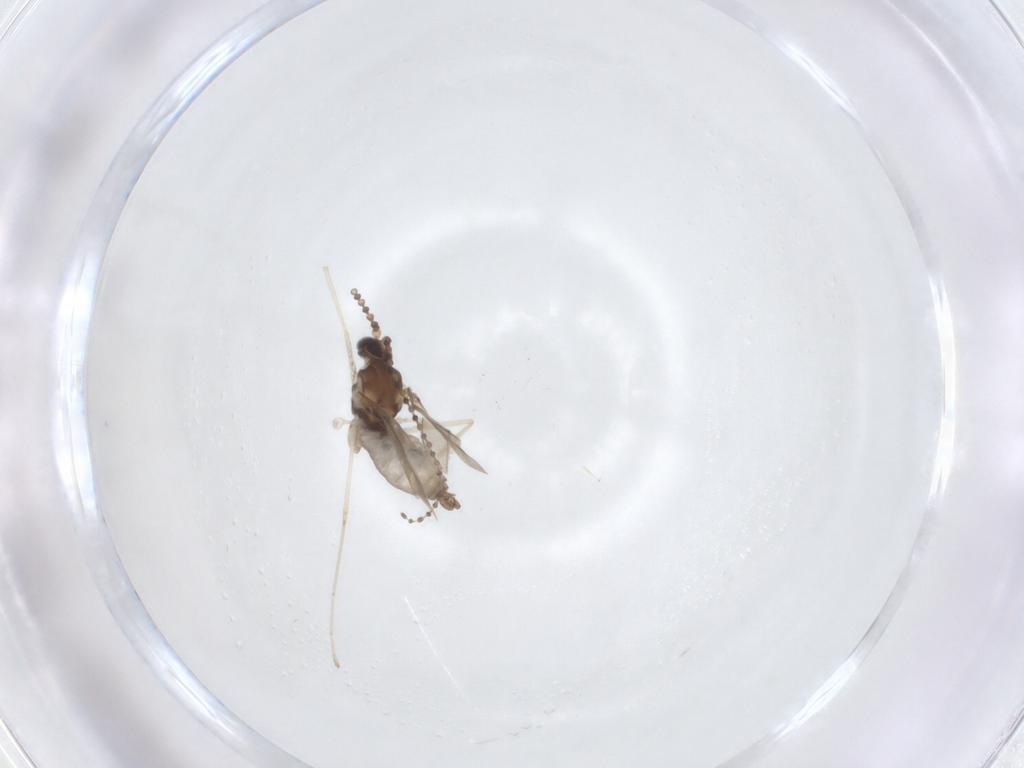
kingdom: Animalia
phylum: Arthropoda
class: Insecta
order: Diptera
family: Cecidomyiidae
